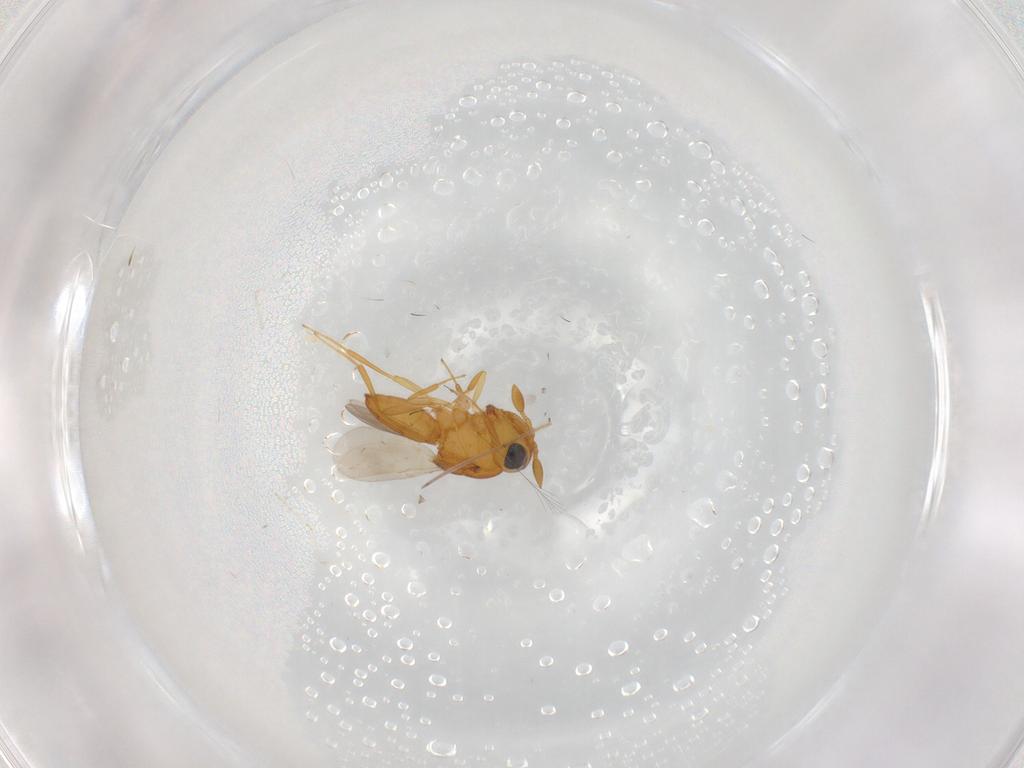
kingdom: Animalia
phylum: Arthropoda
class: Insecta
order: Hymenoptera
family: Scelionidae
